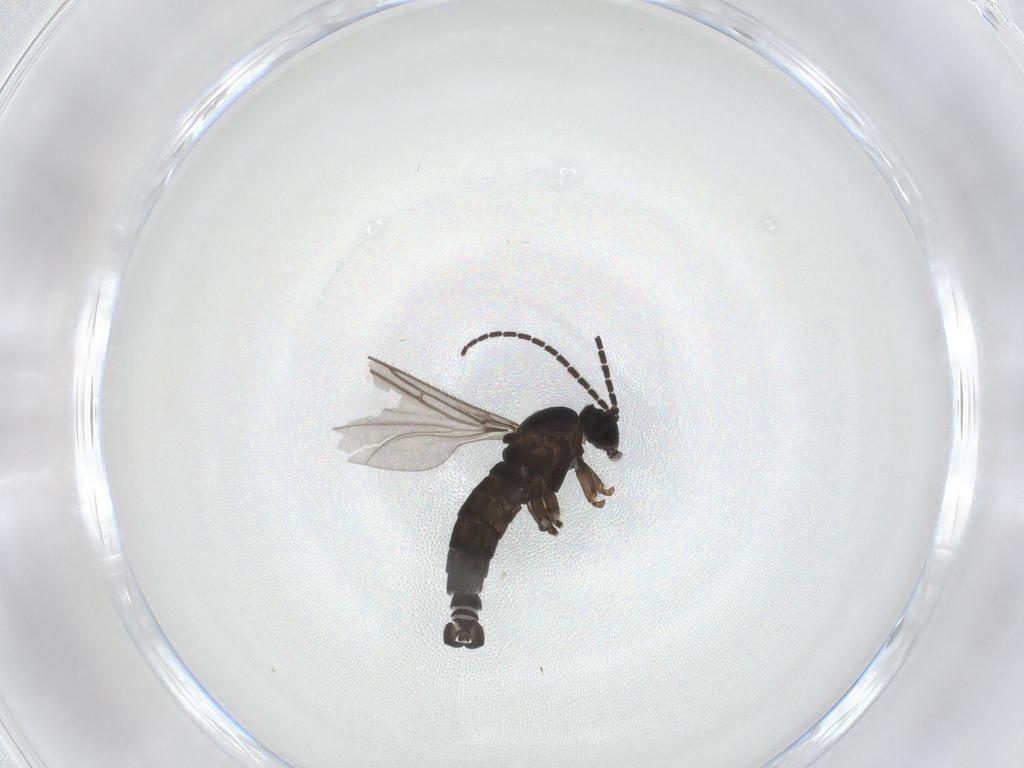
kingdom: Animalia
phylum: Arthropoda
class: Insecta
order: Diptera
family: Sciaridae
